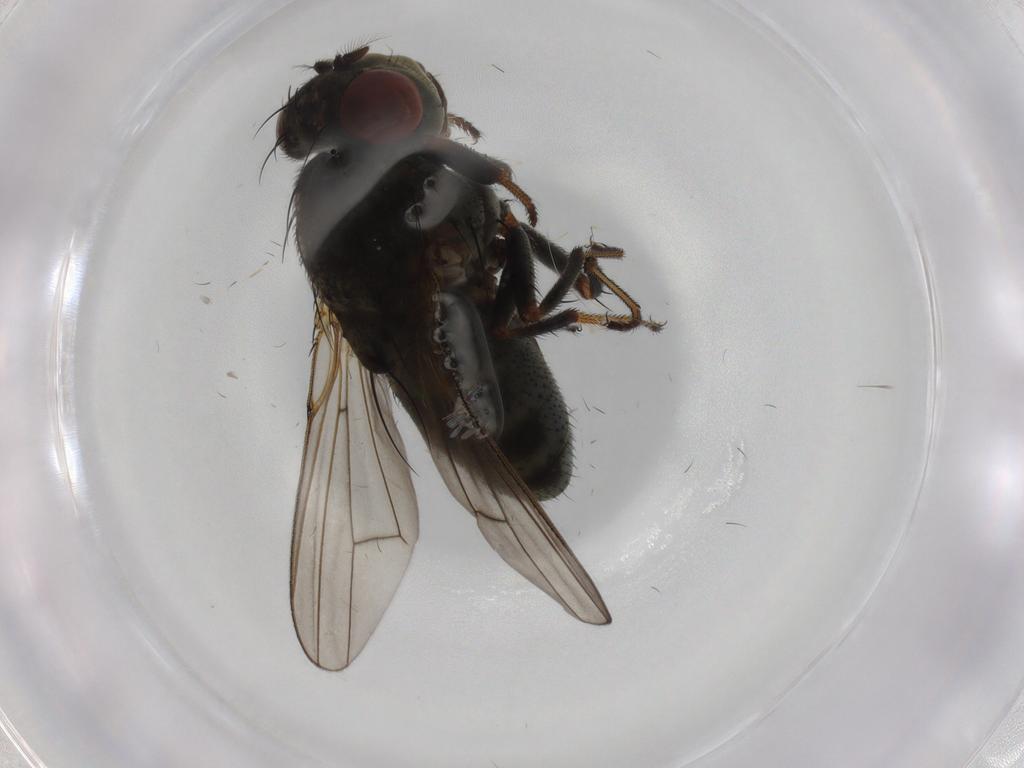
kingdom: Animalia
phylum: Arthropoda
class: Insecta
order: Diptera
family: Ephydridae
